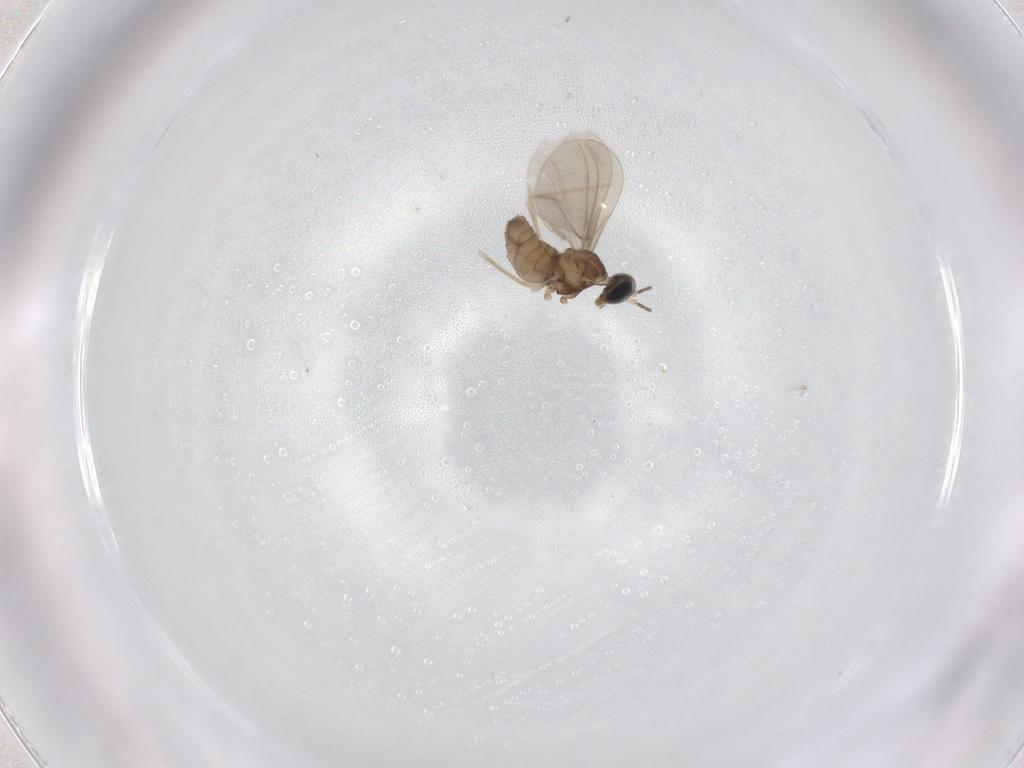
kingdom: Animalia
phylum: Arthropoda
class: Insecta
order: Diptera
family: Cecidomyiidae
